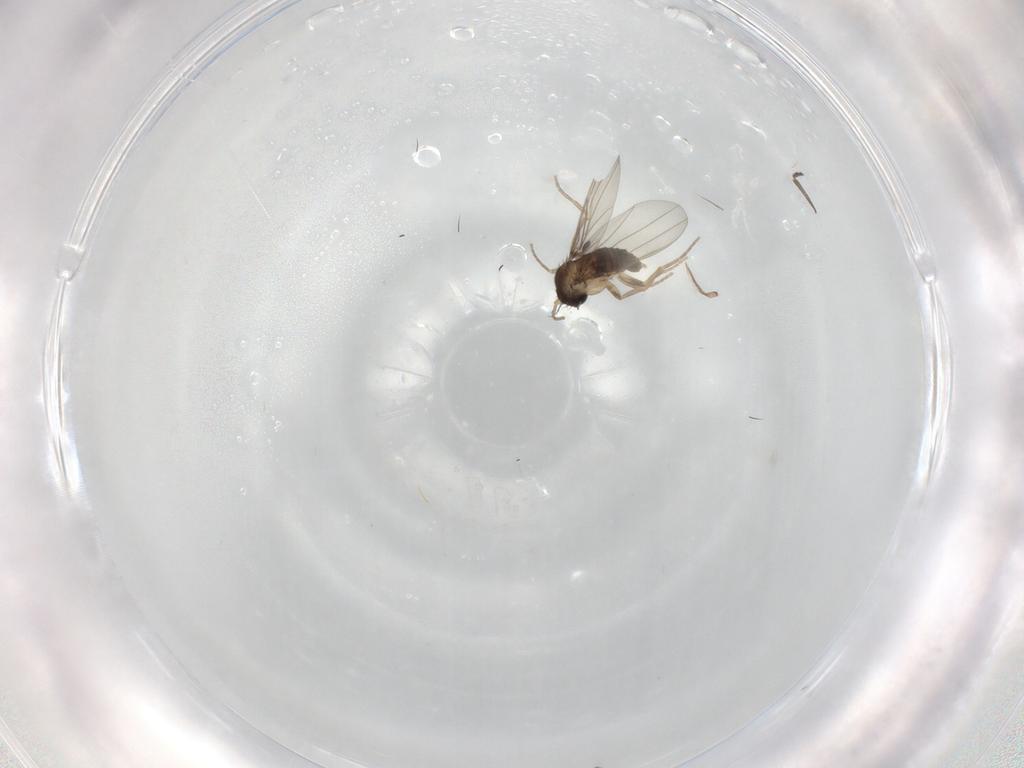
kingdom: Animalia
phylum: Arthropoda
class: Insecta
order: Diptera
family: Phoridae
